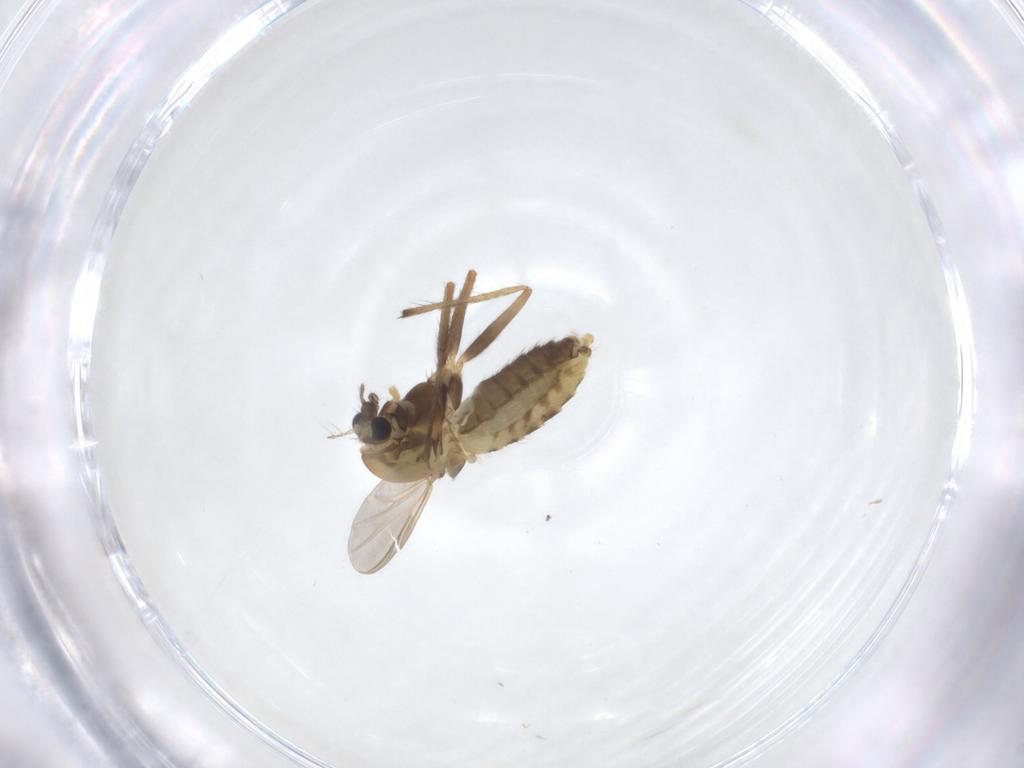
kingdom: Animalia
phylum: Arthropoda
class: Insecta
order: Diptera
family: Chironomidae
